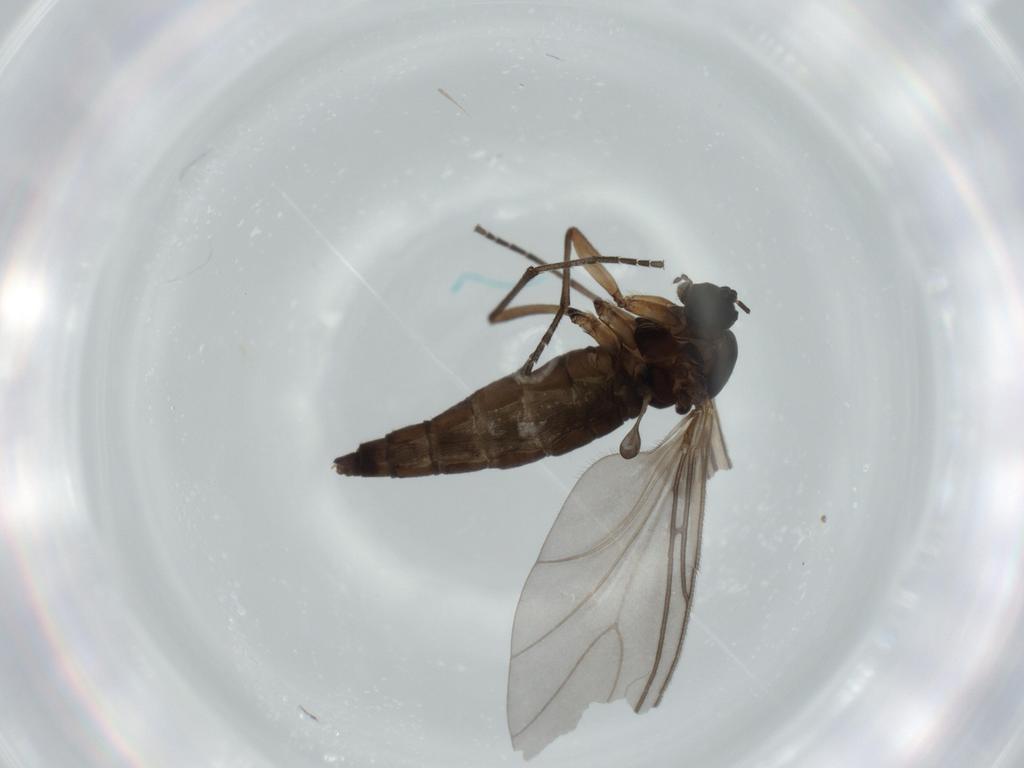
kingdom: Animalia
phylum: Arthropoda
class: Insecta
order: Diptera
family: Sciaridae
